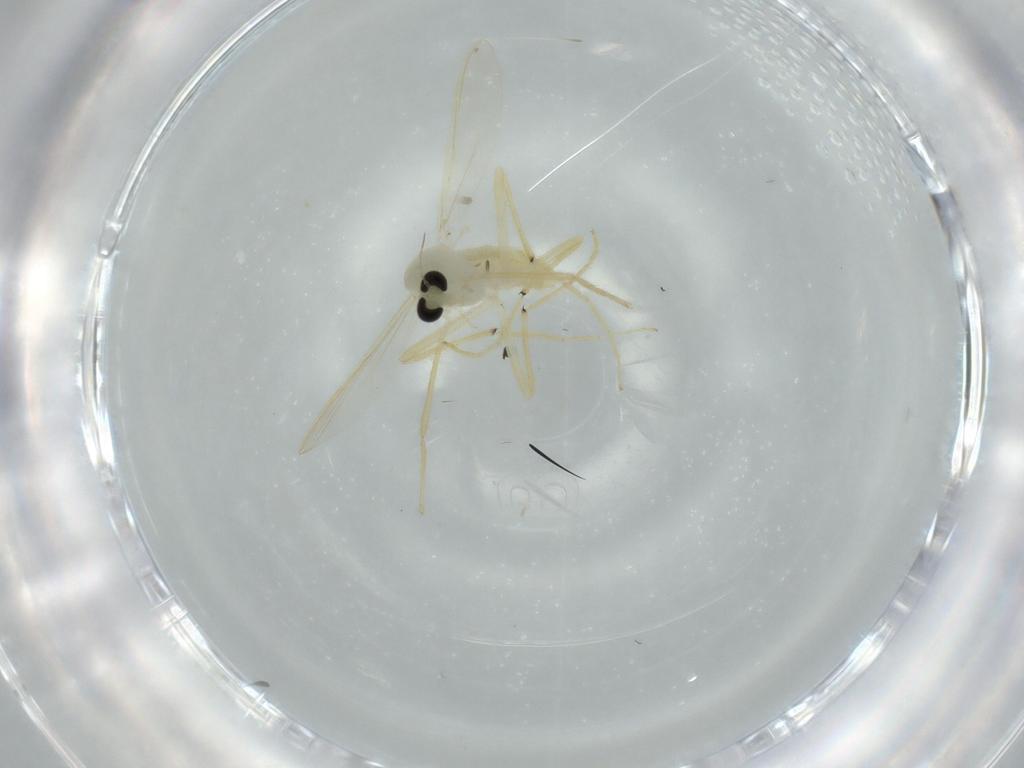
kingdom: Animalia
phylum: Arthropoda
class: Insecta
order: Diptera
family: Chironomidae
